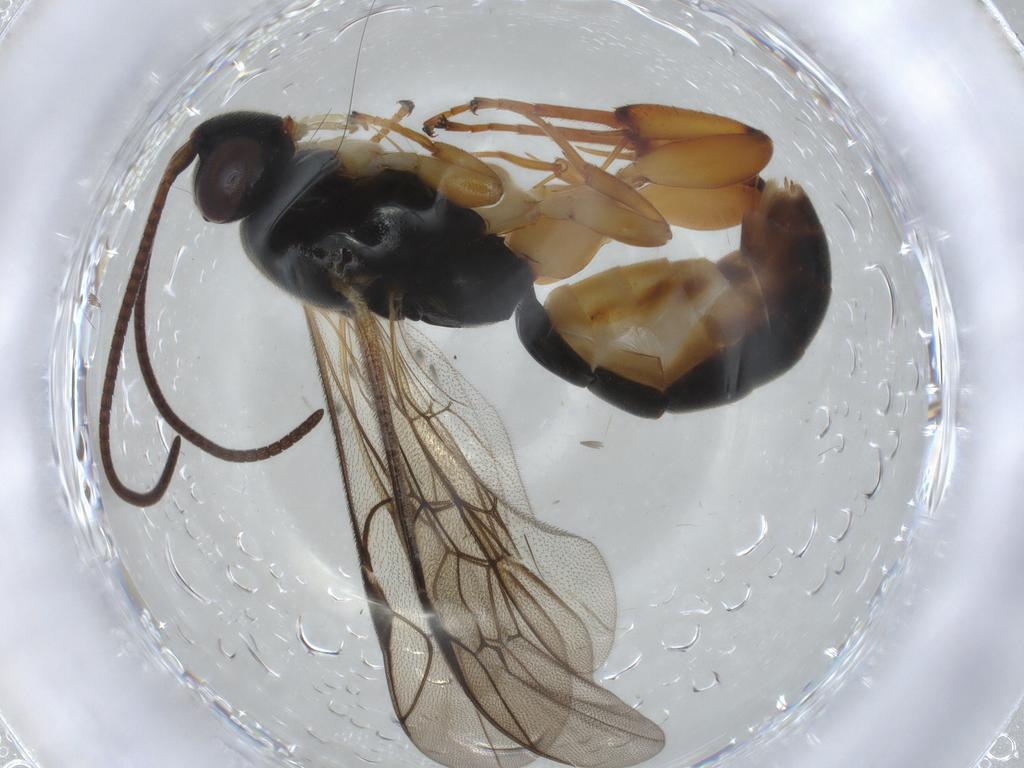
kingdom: Animalia
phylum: Arthropoda
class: Insecta
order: Hymenoptera
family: Ichneumonidae
